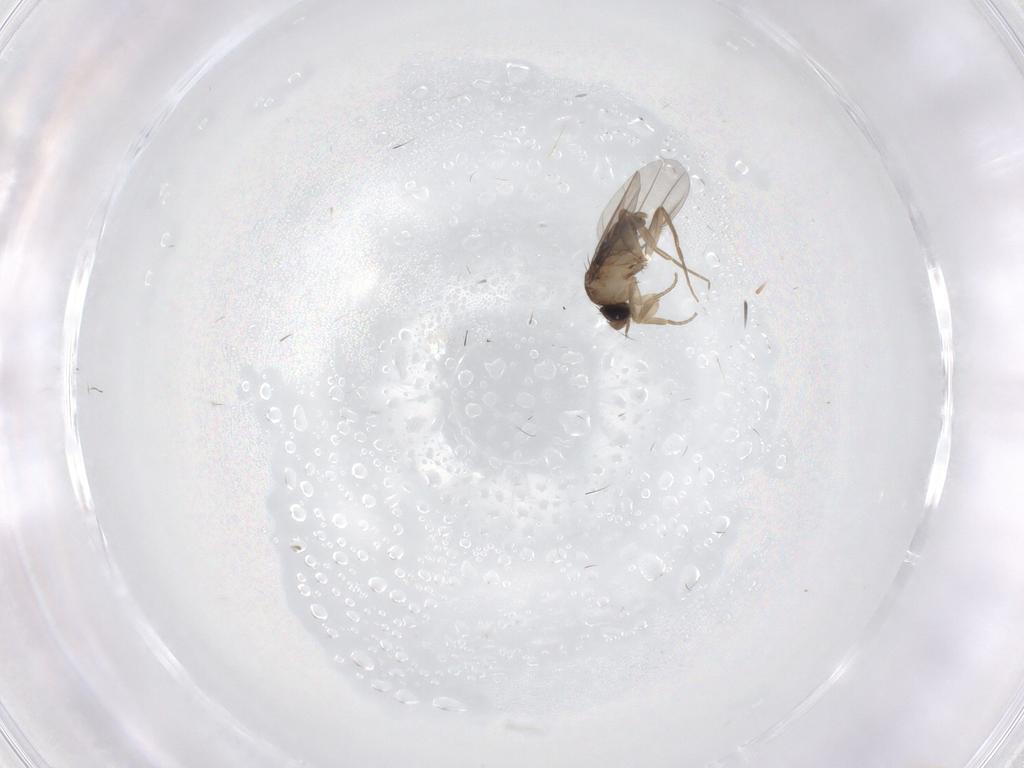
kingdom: Animalia
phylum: Arthropoda
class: Insecta
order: Diptera
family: Phoridae
